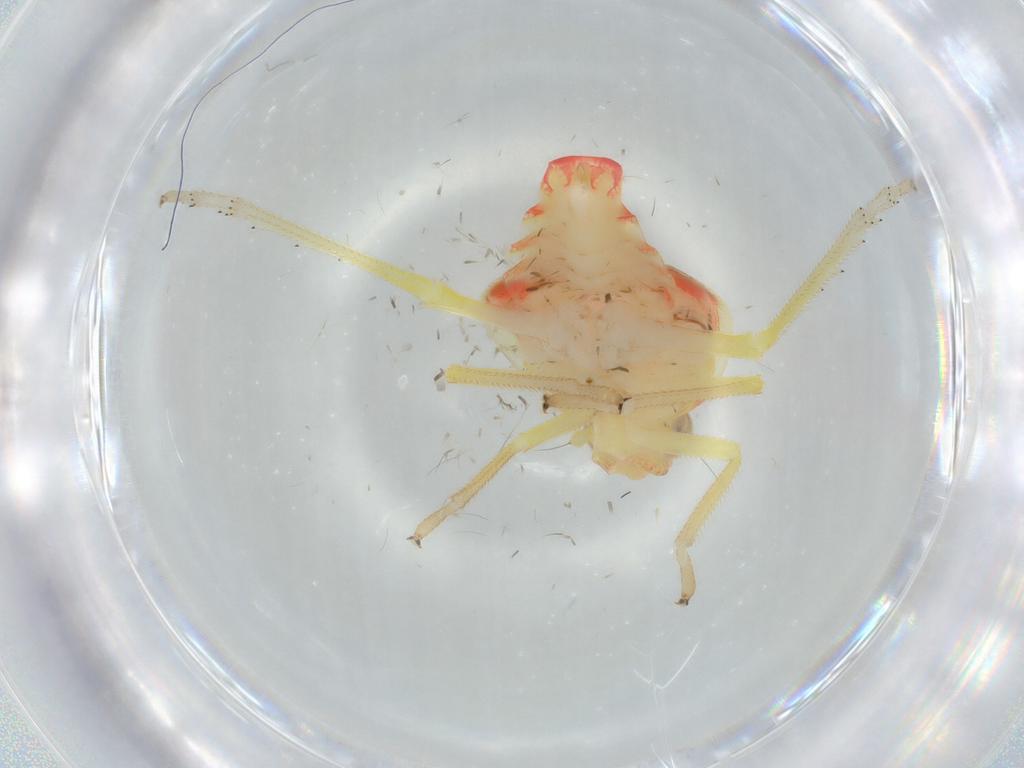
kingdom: Animalia
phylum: Arthropoda
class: Insecta
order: Hemiptera
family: Tropiduchidae
